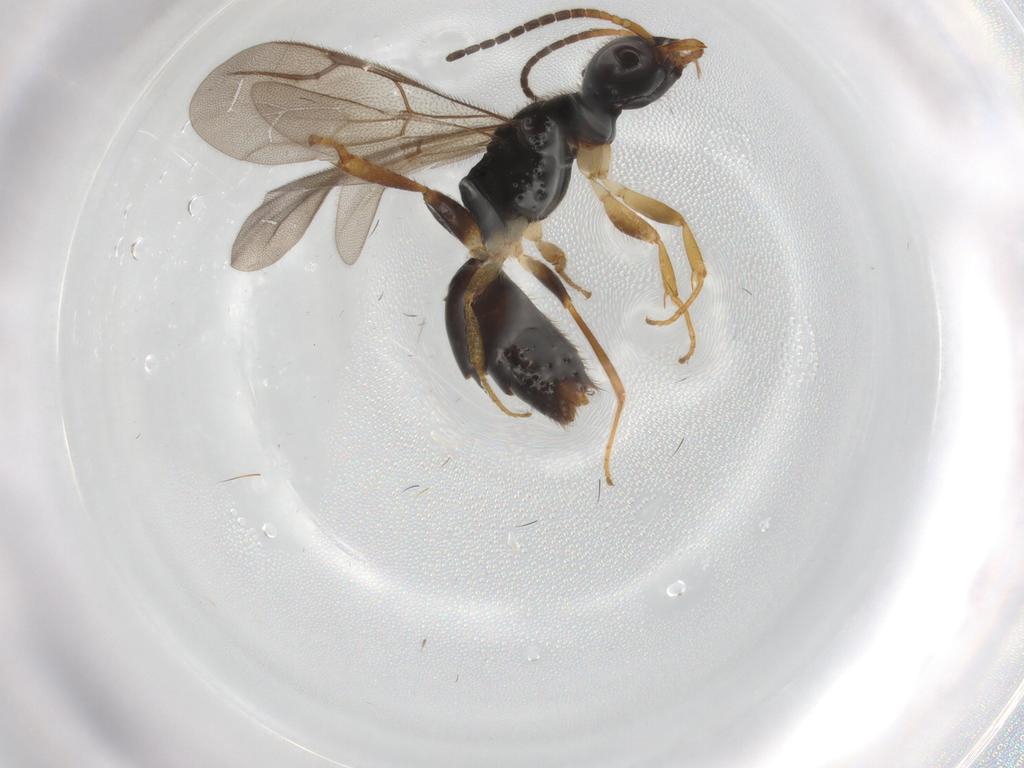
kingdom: Animalia
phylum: Arthropoda
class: Insecta
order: Hymenoptera
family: Bethylidae
